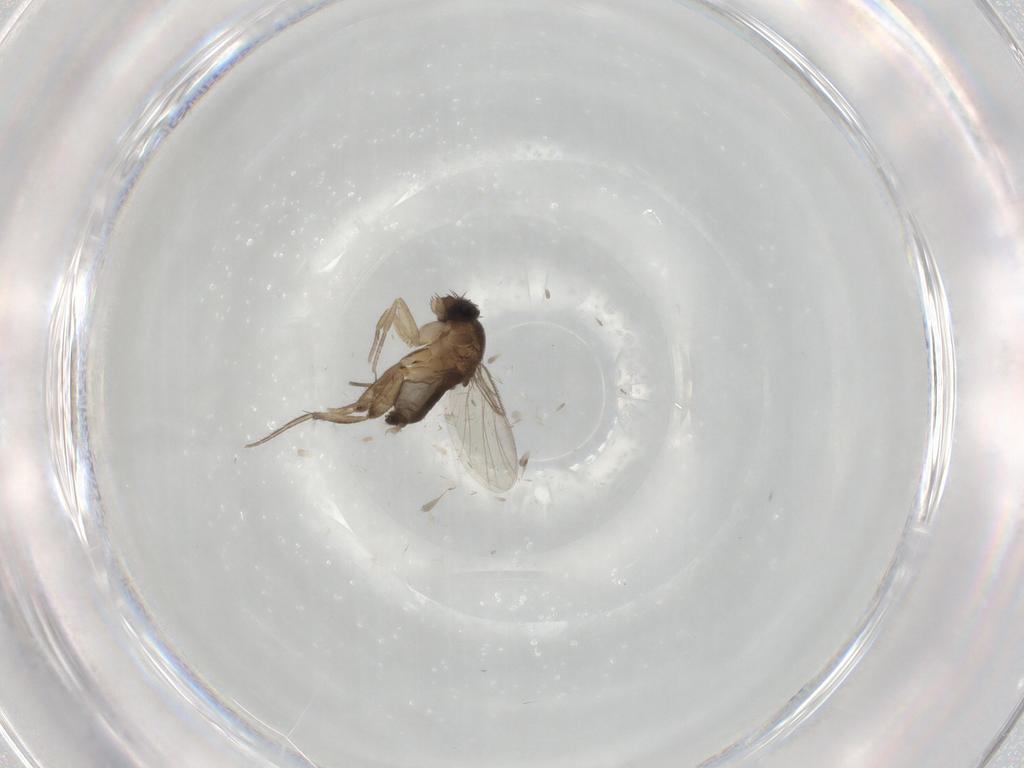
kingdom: Animalia
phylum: Arthropoda
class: Insecta
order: Diptera
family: Phoridae
